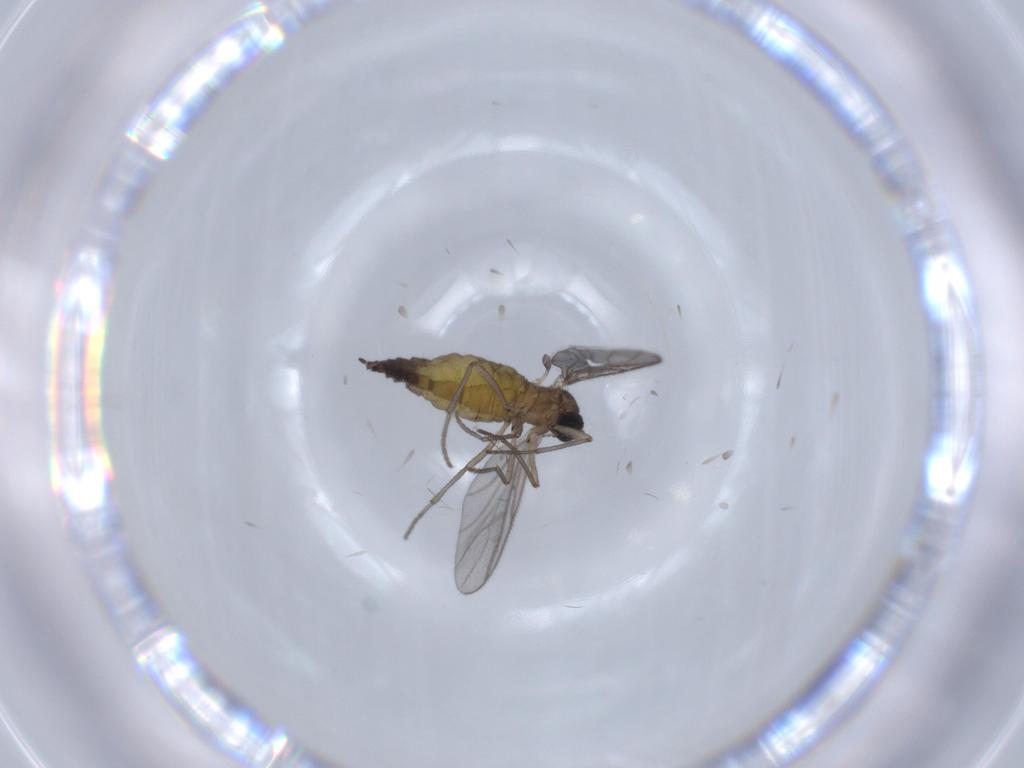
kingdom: Animalia
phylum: Arthropoda
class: Insecta
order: Diptera
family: Sciaridae
